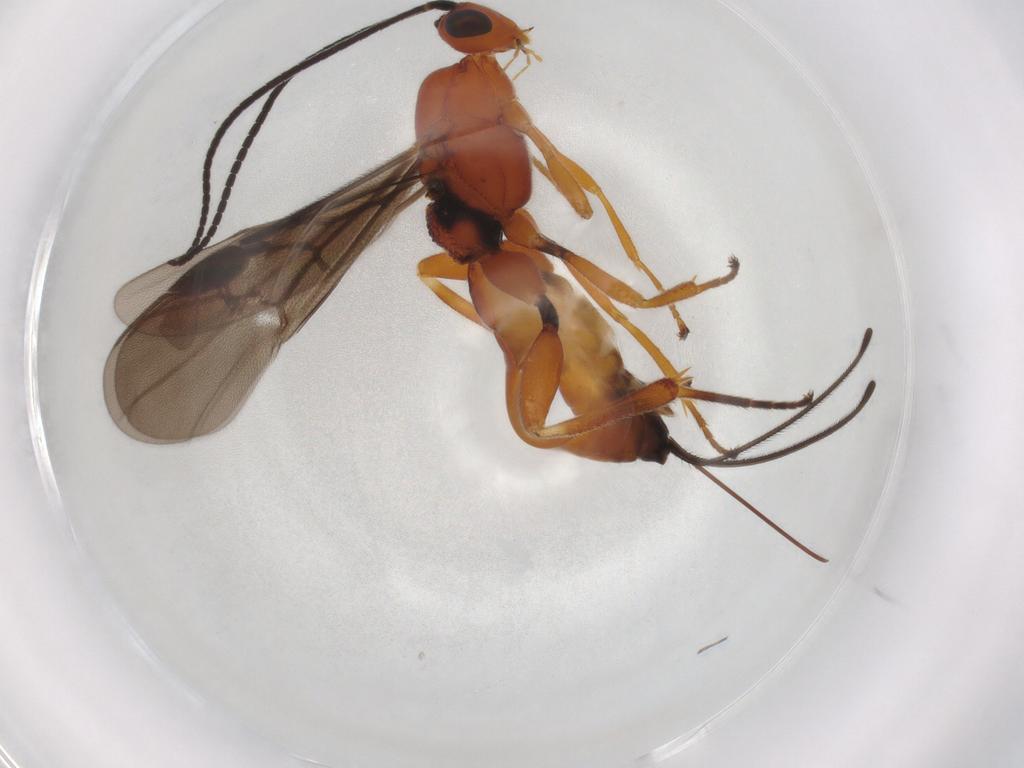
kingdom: Animalia
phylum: Arthropoda
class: Insecta
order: Hymenoptera
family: Braconidae
